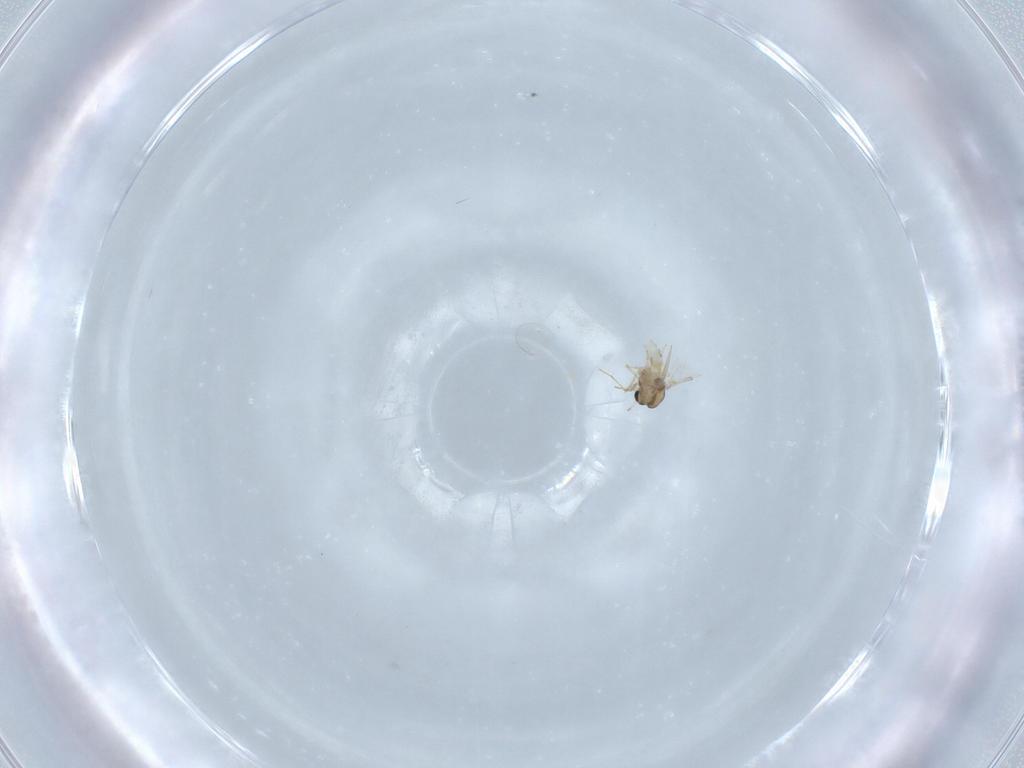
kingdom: Animalia
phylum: Arthropoda
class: Insecta
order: Diptera
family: Chironomidae
